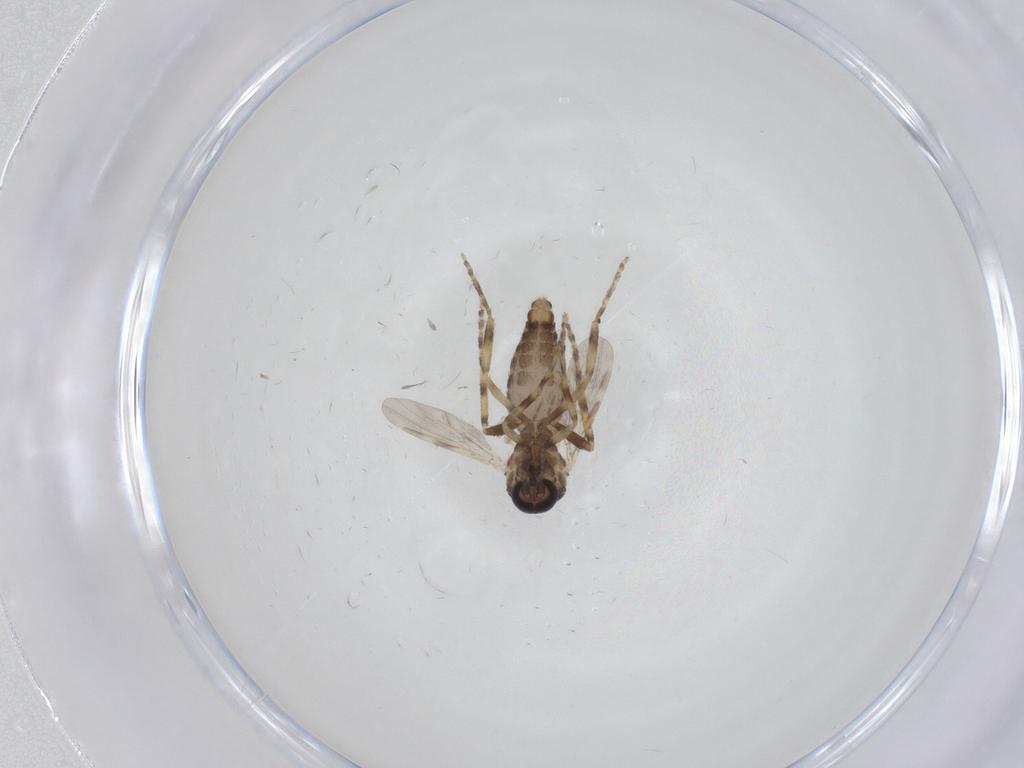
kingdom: Animalia
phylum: Arthropoda
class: Insecta
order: Diptera
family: Ceratopogonidae
